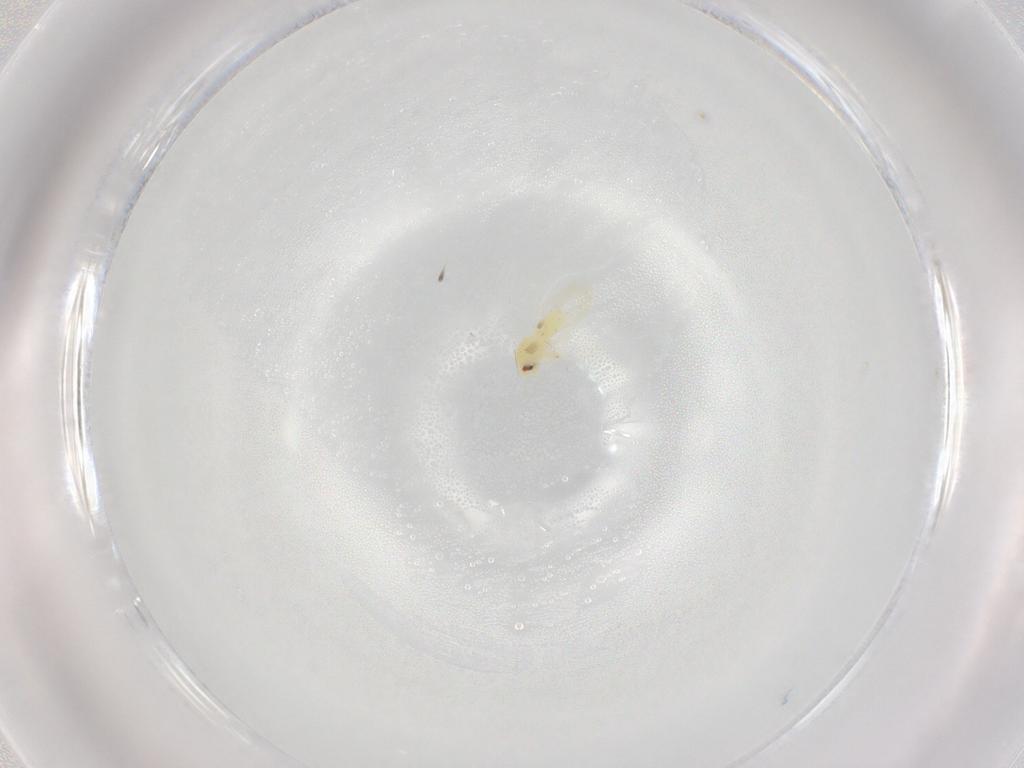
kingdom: Animalia
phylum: Arthropoda
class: Insecta
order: Hemiptera
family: Aleyrodidae
